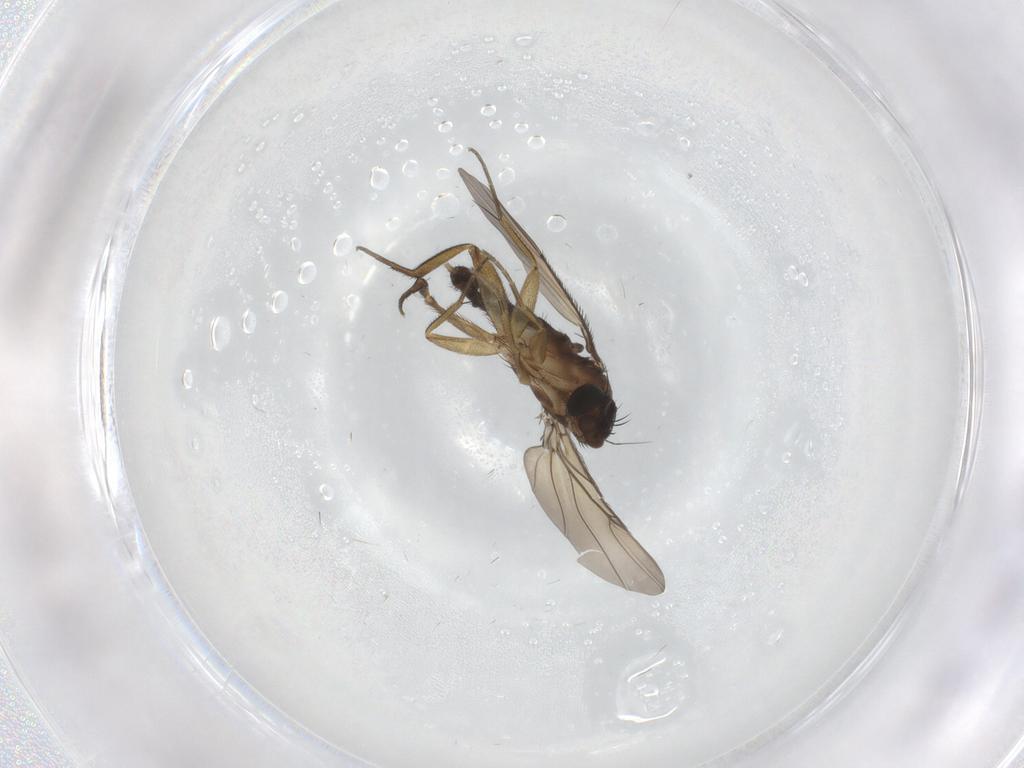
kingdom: Animalia
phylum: Arthropoda
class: Insecta
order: Diptera
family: Phoridae
